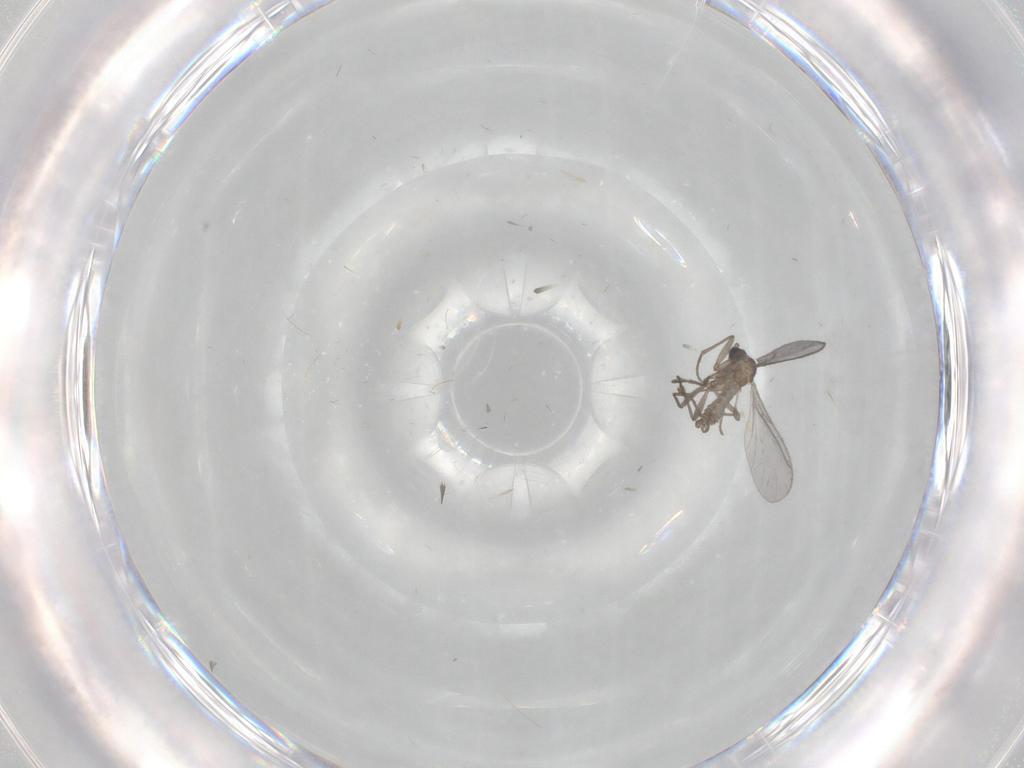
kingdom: Animalia
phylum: Arthropoda
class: Insecta
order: Diptera
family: Sciaridae
